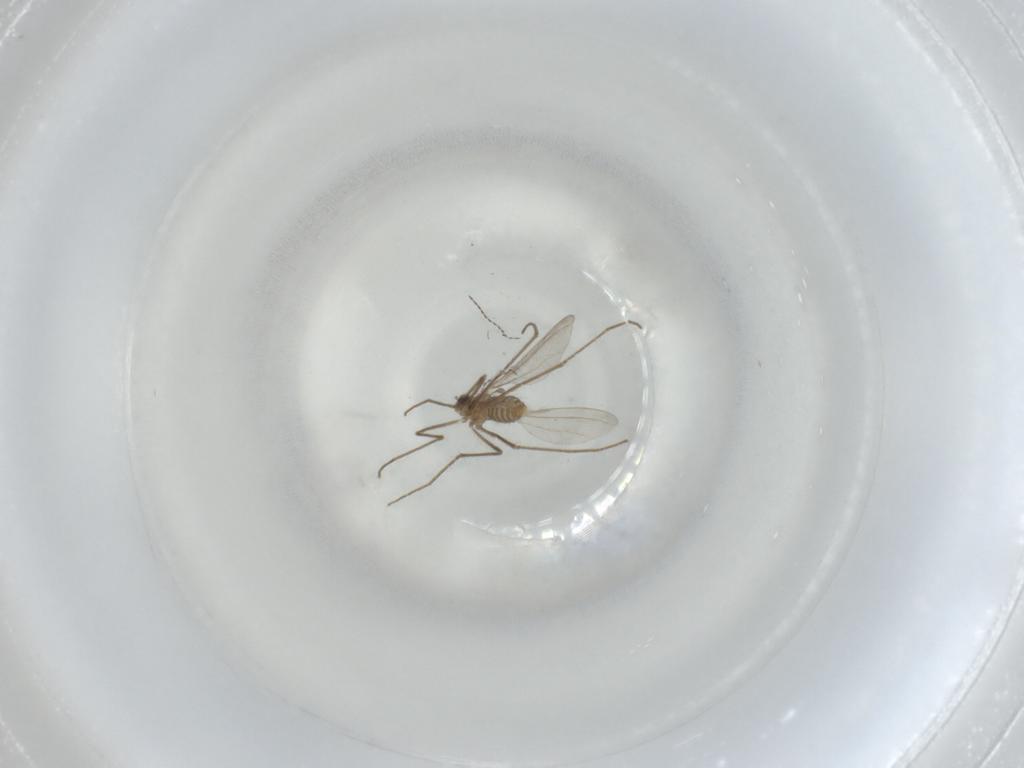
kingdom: Animalia
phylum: Arthropoda
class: Insecta
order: Diptera
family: Cecidomyiidae
